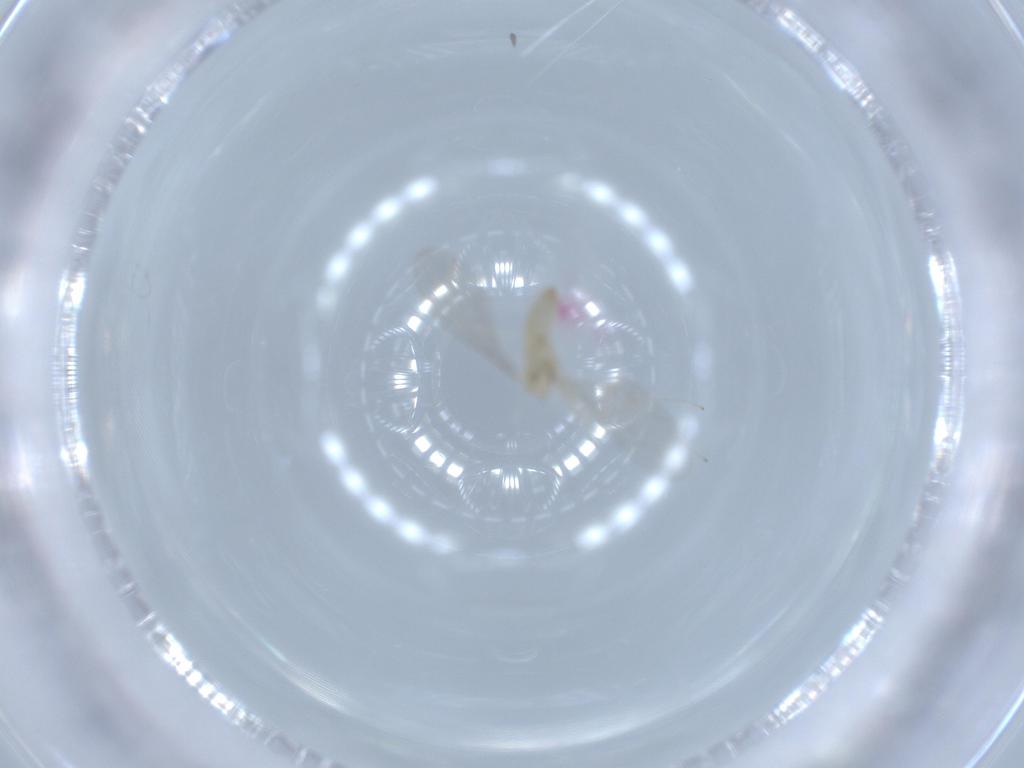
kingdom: Animalia
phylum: Arthropoda
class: Insecta
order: Diptera
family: Cecidomyiidae
